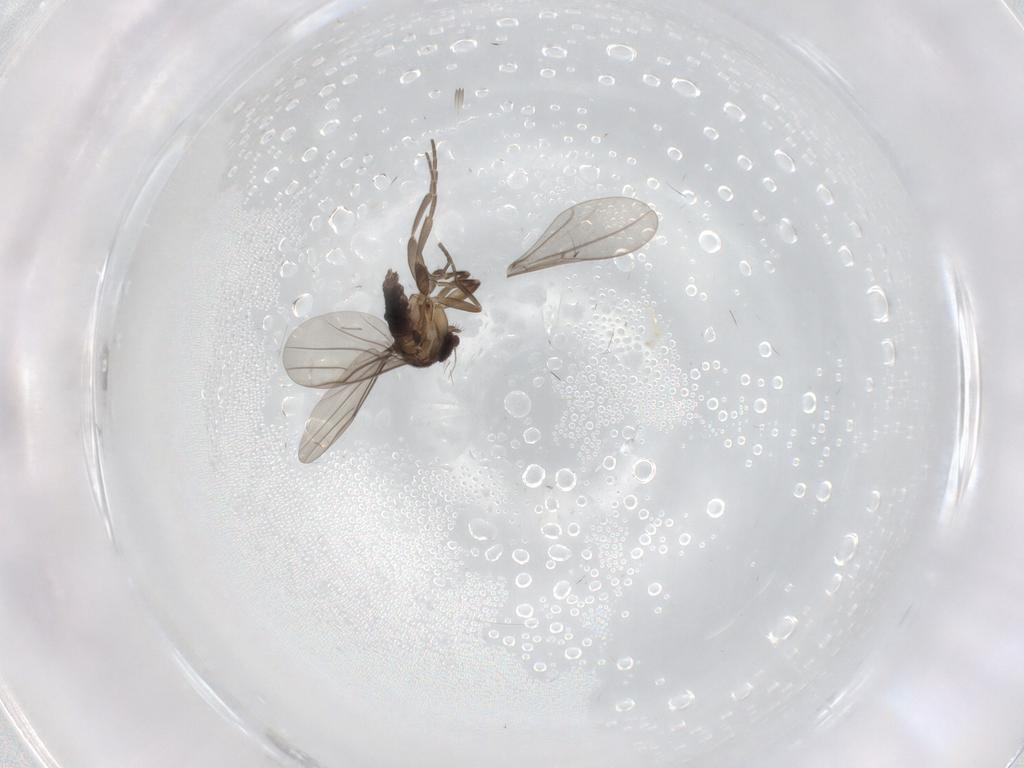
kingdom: Animalia
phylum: Arthropoda
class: Insecta
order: Diptera
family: Phoridae
